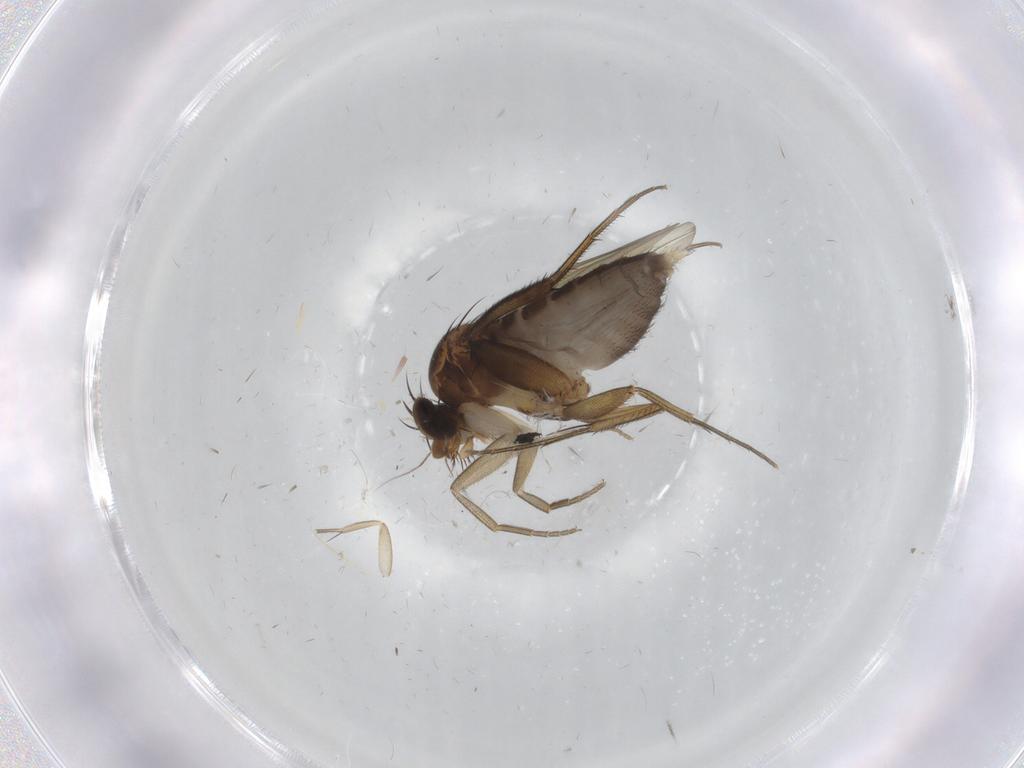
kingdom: Animalia
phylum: Arthropoda
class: Insecta
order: Diptera
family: Phoridae
